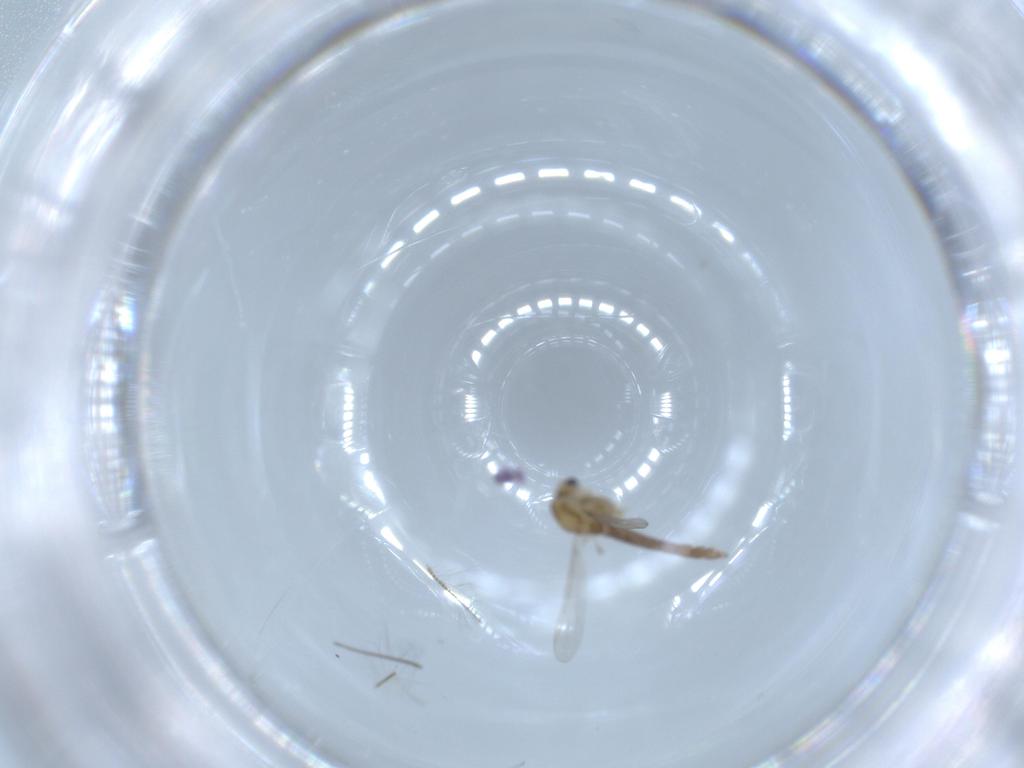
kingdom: Animalia
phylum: Arthropoda
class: Insecta
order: Diptera
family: Chironomidae
